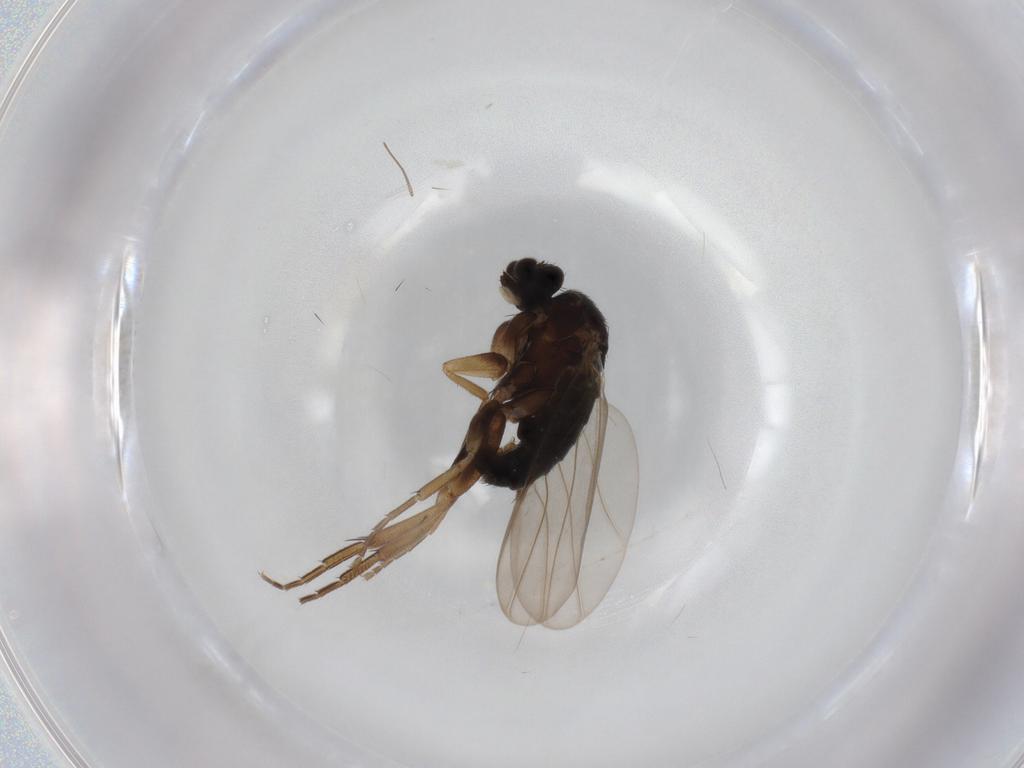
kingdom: Animalia
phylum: Arthropoda
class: Insecta
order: Diptera
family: Phoridae
